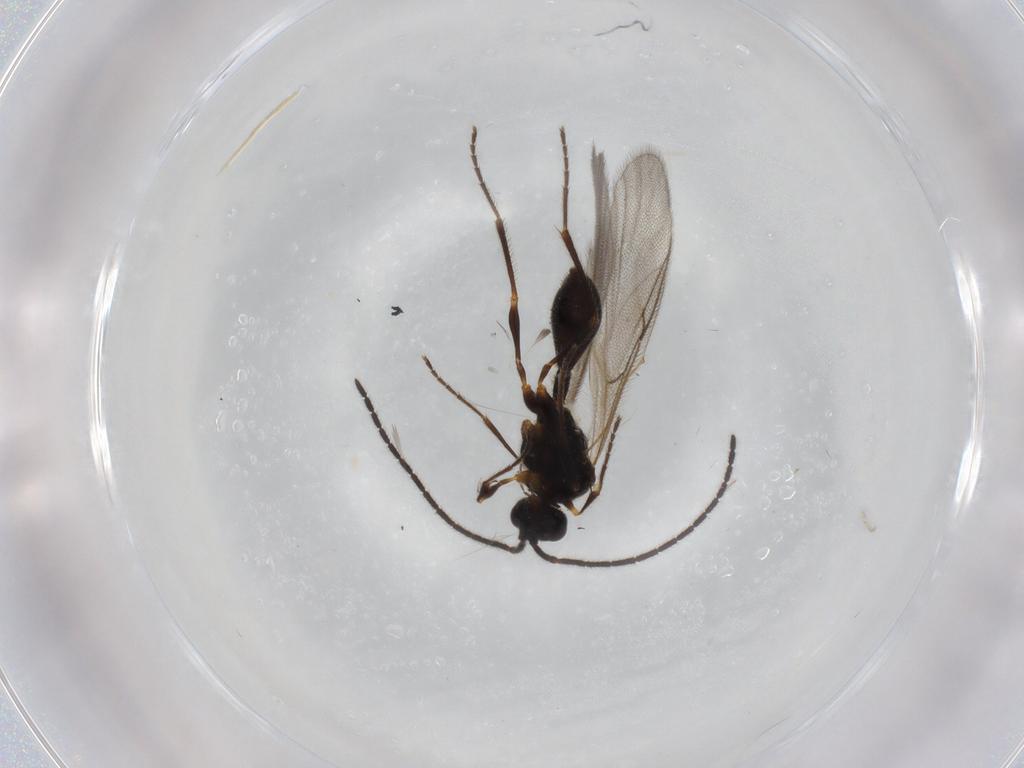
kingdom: Animalia
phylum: Arthropoda
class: Insecta
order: Hymenoptera
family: Diapriidae
